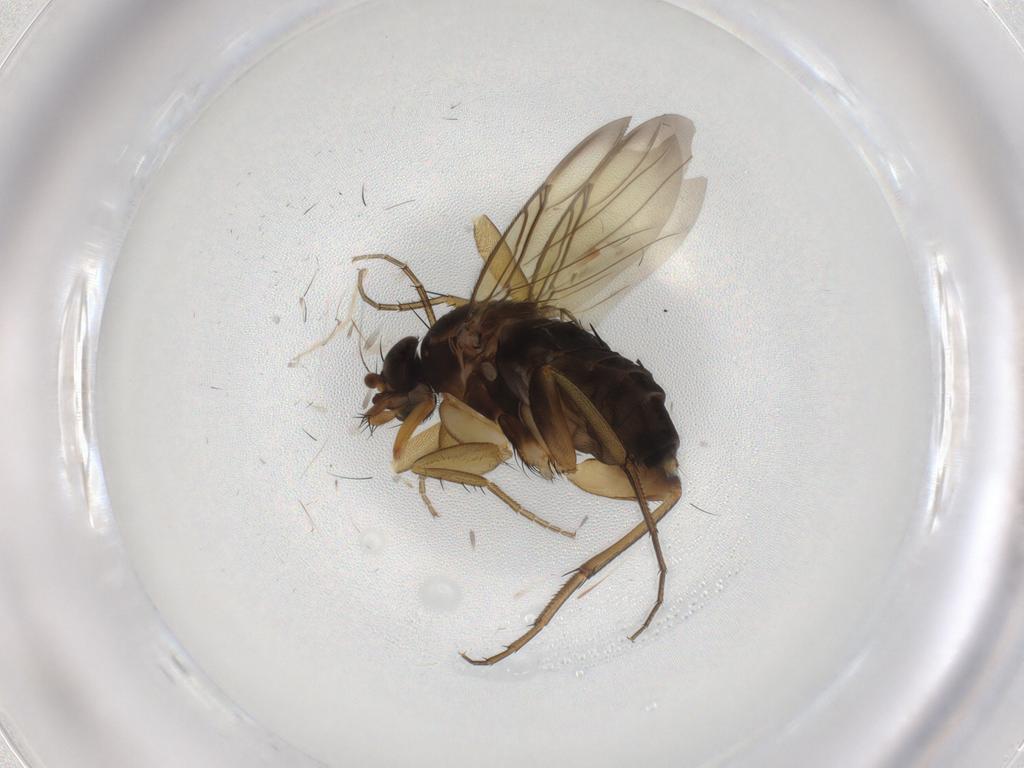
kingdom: Animalia
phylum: Arthropoda
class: Insecta
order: Diptera
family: Phoridae
